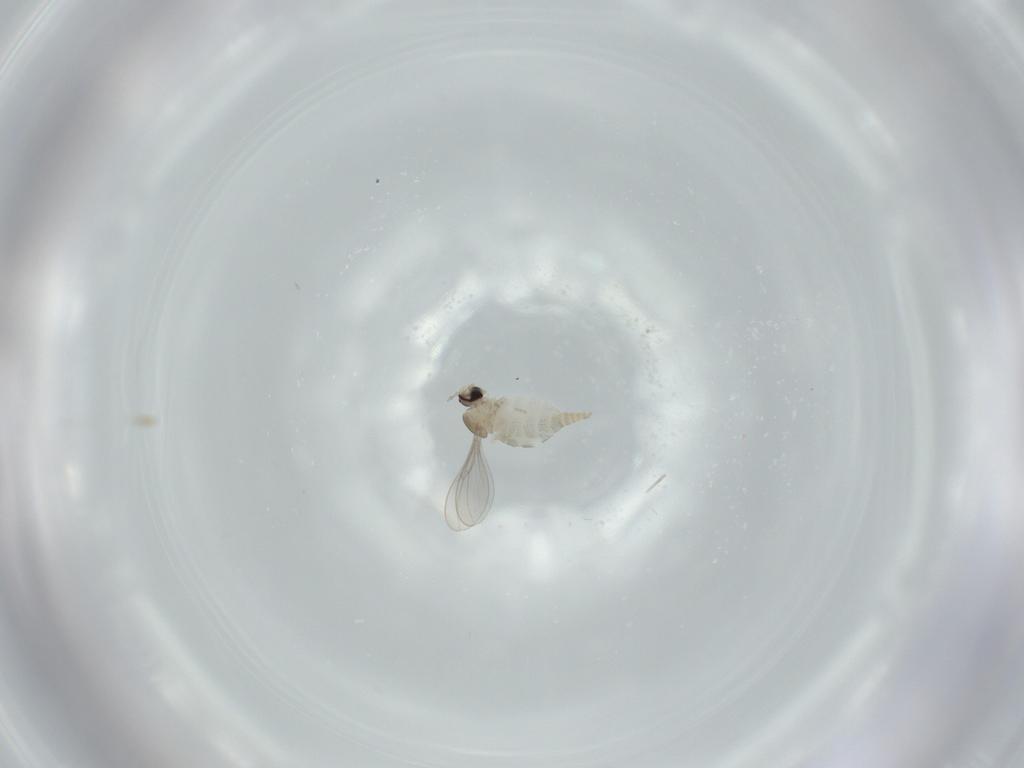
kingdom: Animalia
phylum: Arthropoda
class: Insecta
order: Diptera
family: Cecidomyiidae
